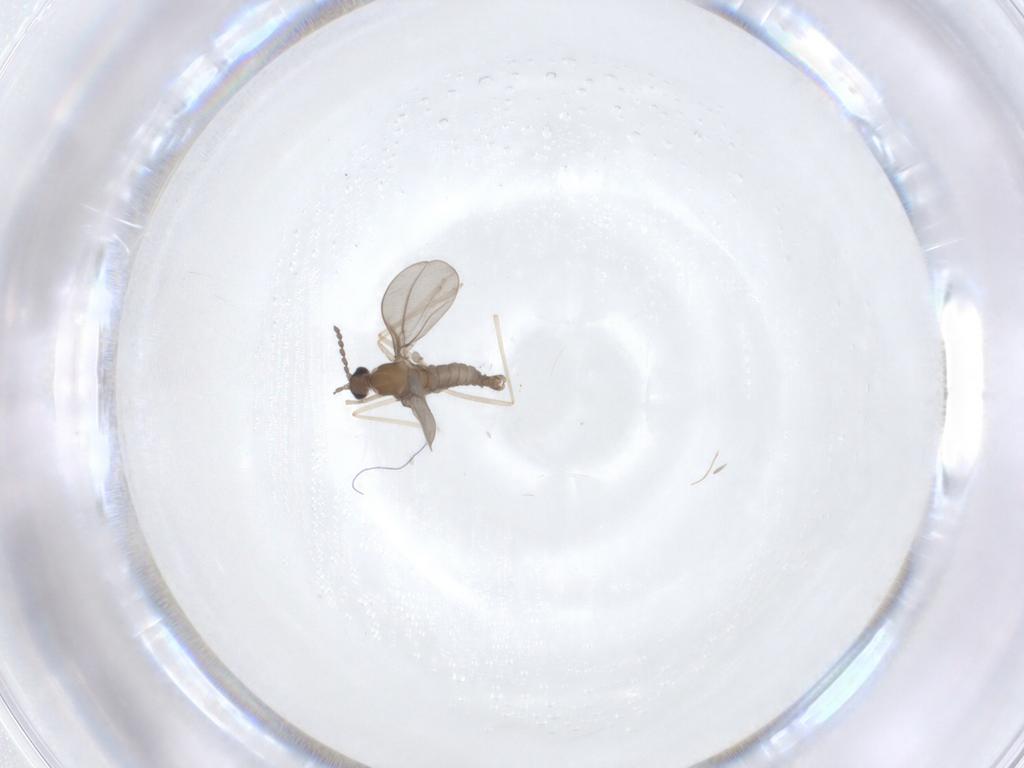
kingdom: Animalia
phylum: Arthropoda
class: Insecta
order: Diptera
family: Cecidomyiidae
